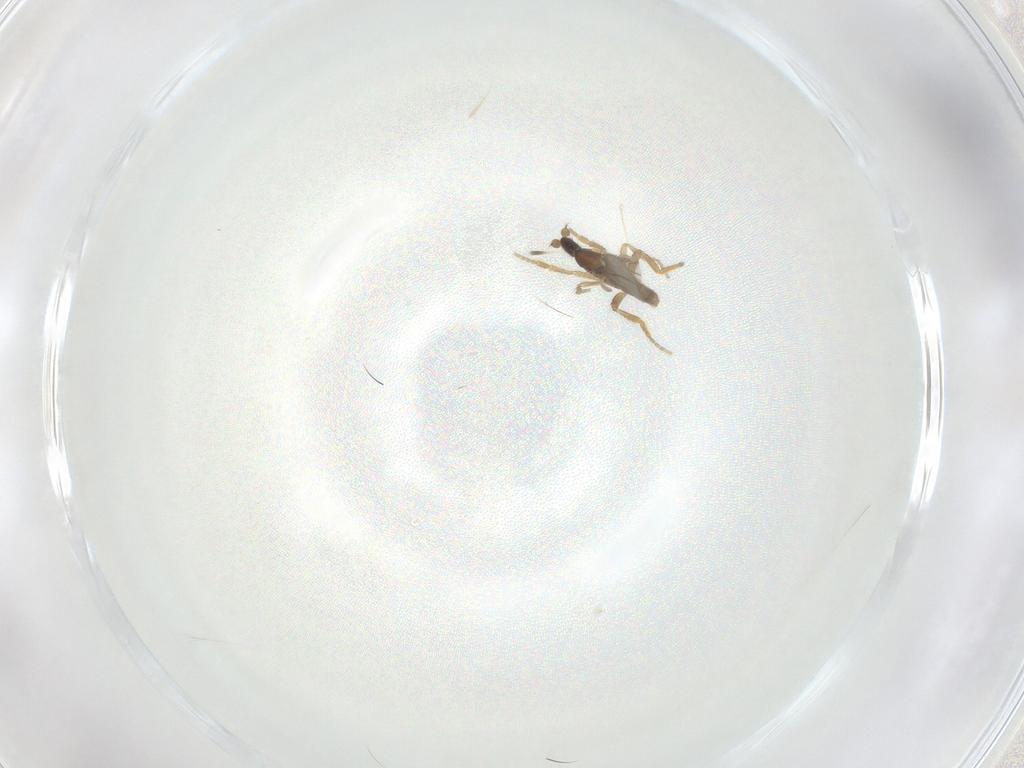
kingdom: Animalia
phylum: Arthropoda
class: Insecta
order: Diptera
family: Phoridae
